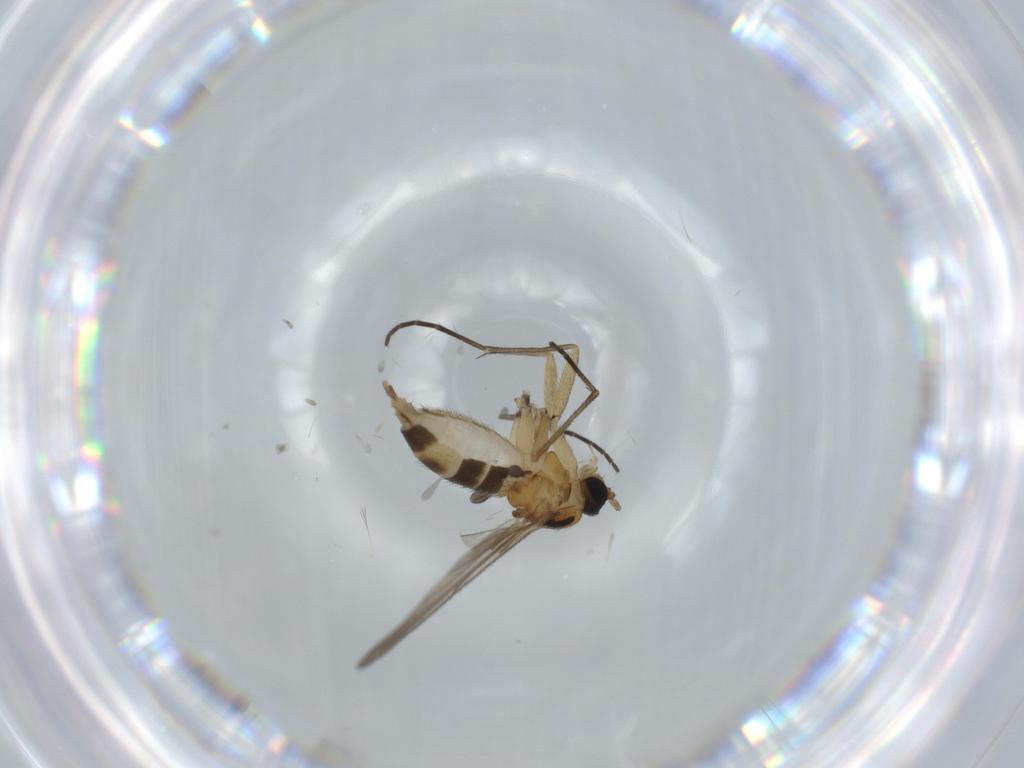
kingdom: Animalia
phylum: Arthropoda
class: Insecta
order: Diptera
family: Sciaridae
